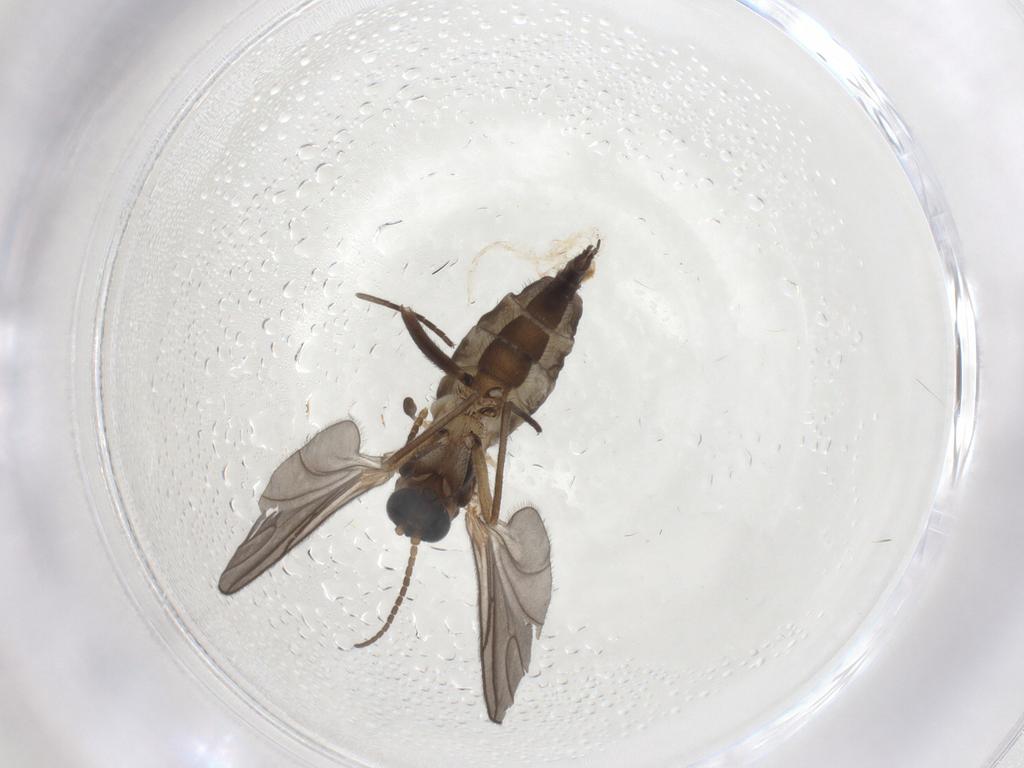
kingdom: Animalia
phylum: Arthropoda
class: Insecta
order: Diptera
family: Sciaridae
